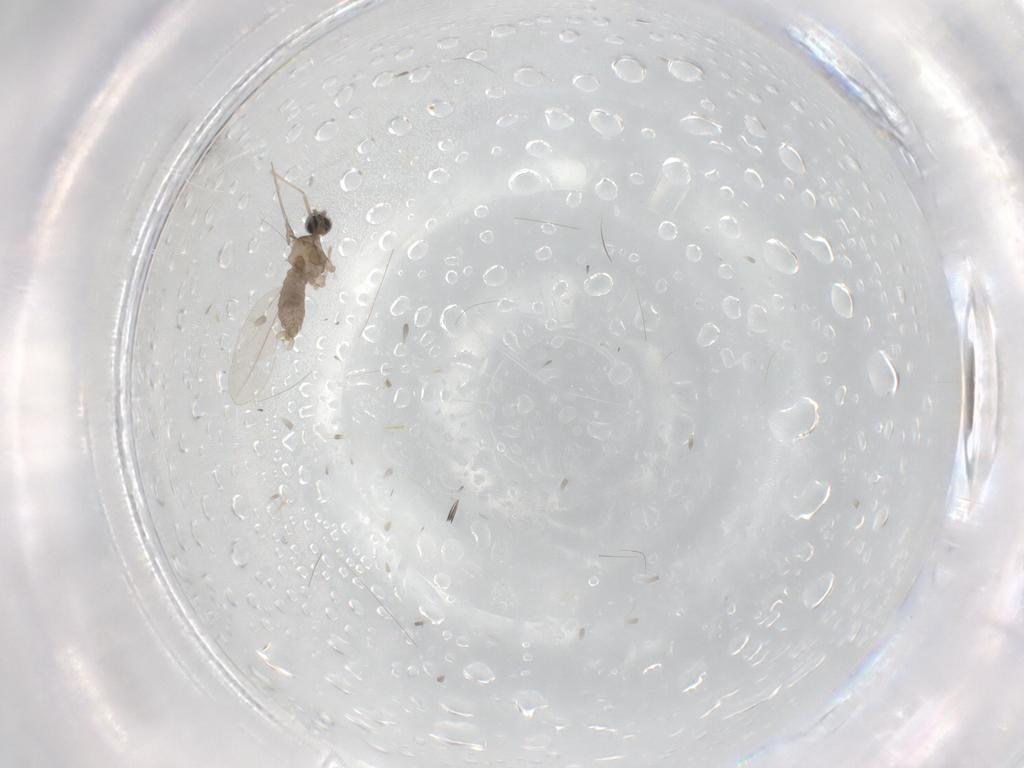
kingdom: Animalia
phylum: Arthropoda
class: Insecta
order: Diptera
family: Cecidomyiidae
